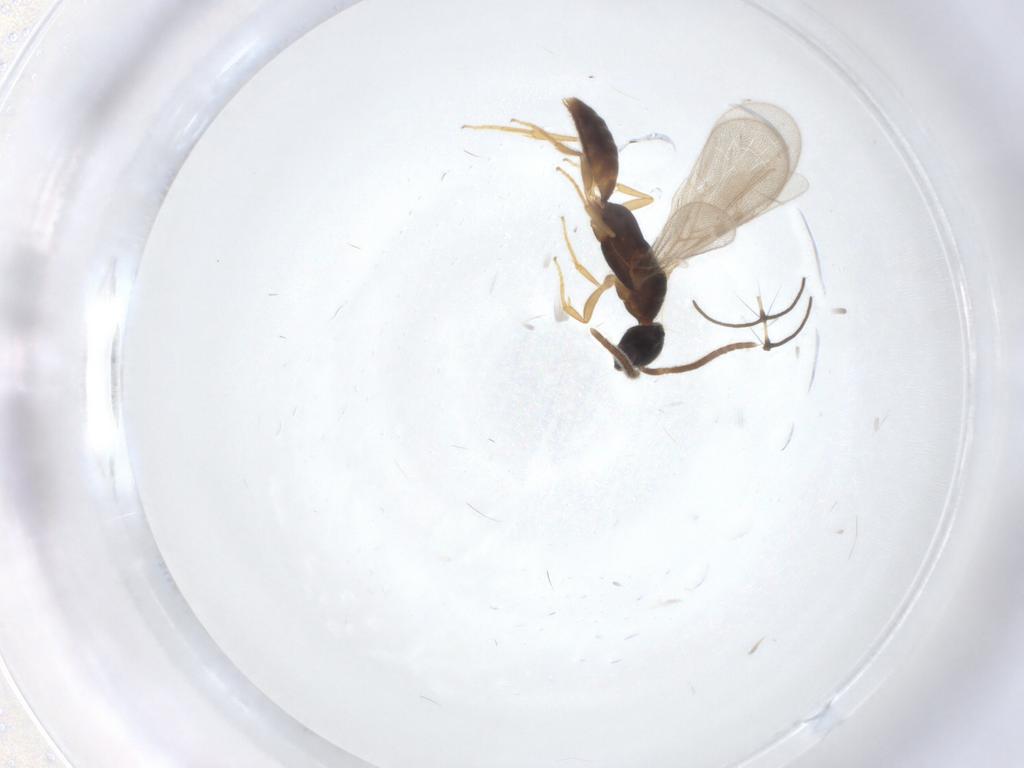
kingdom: Animalia
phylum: Arthropoda
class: Insecta
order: Hymenoptera
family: Bethylidae
